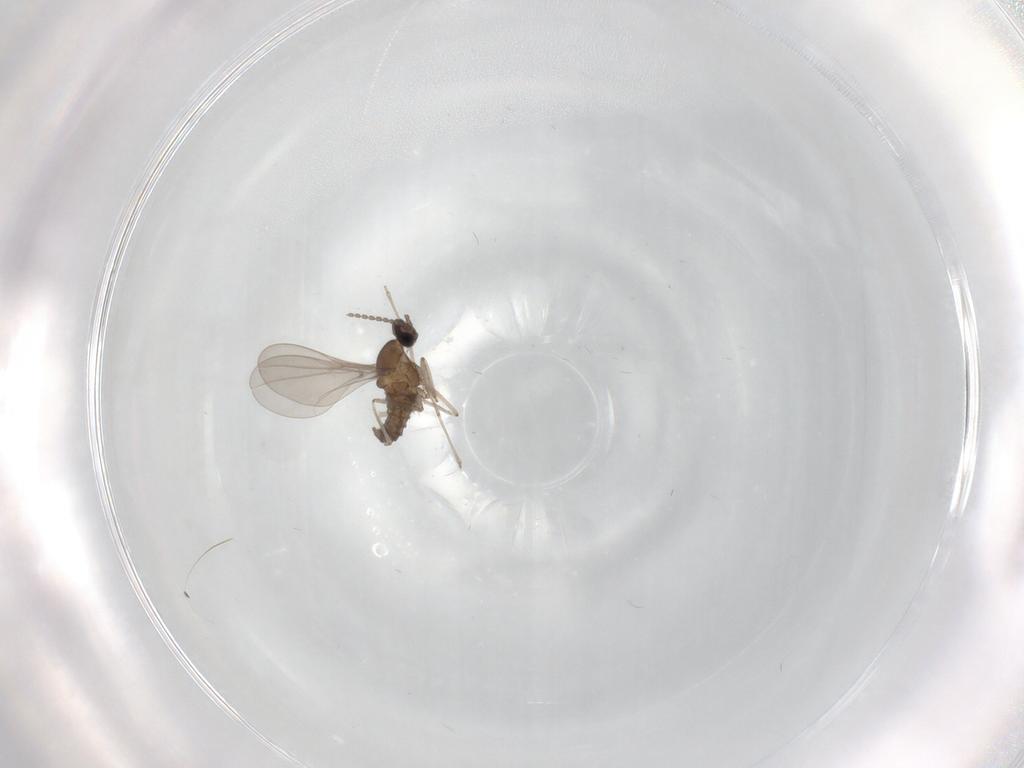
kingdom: Animalia
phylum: Arthropoda
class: Insecta
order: Diptera
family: Cecidomyiidae
